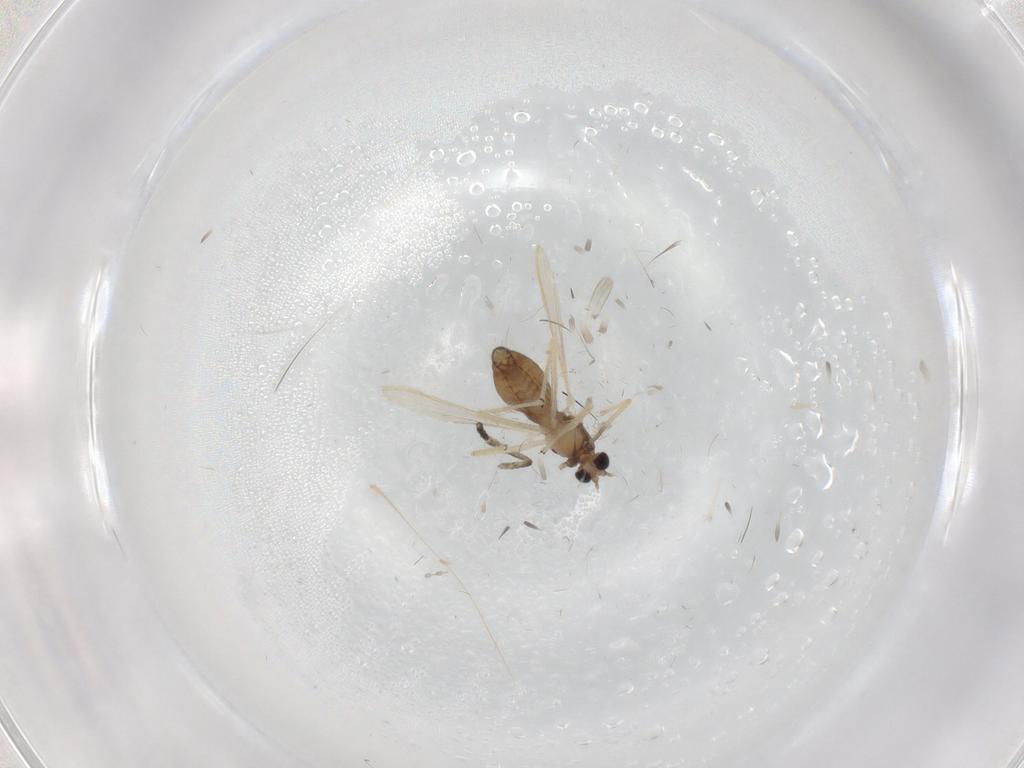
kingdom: Animalia
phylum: Arthropoda
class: Insecta
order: Diptera
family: Cecidomyiidae
